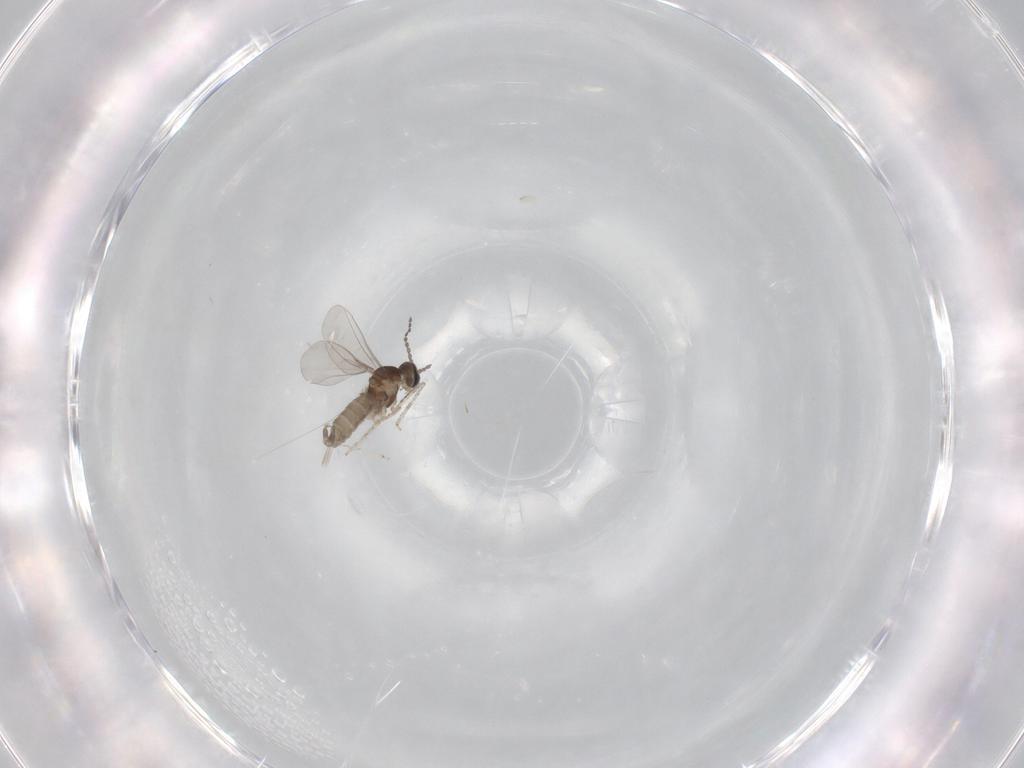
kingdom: Animalia
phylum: Arthropoda
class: Insecta
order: Diptera
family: Cecidomyiidae
